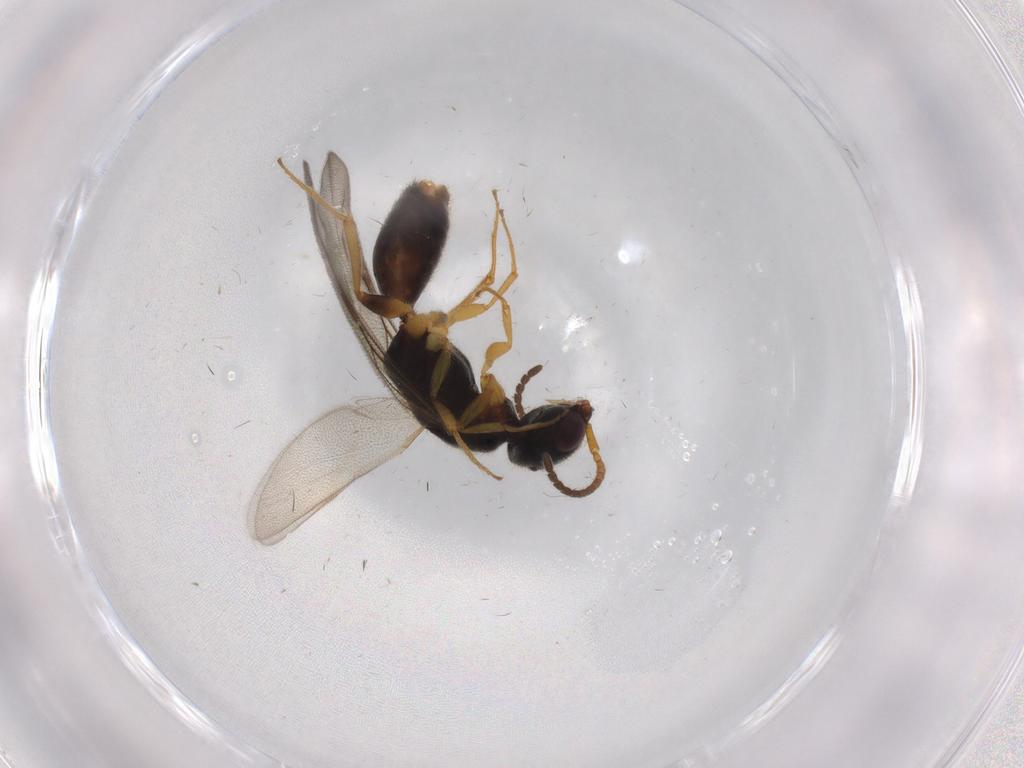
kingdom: Animalia
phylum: Arthropoda
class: Insecta
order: Hymenoptera
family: Bethylidae
